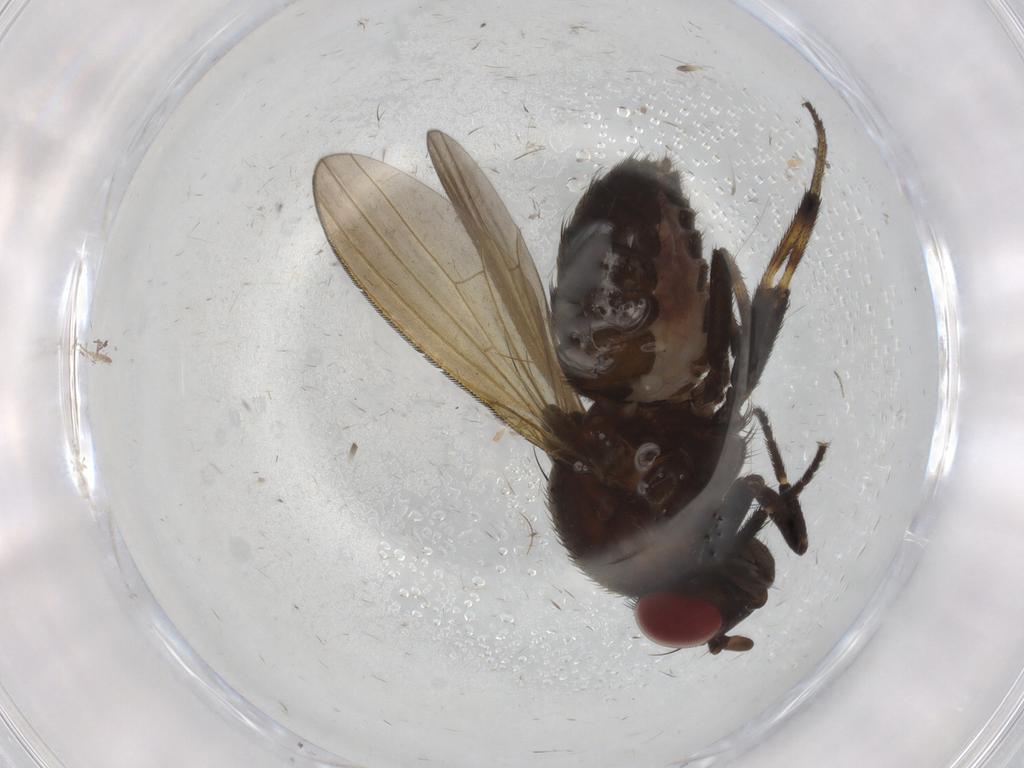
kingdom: Animalia
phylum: Arthropoda
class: Insecta
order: Diptera
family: Lauxaniidae
